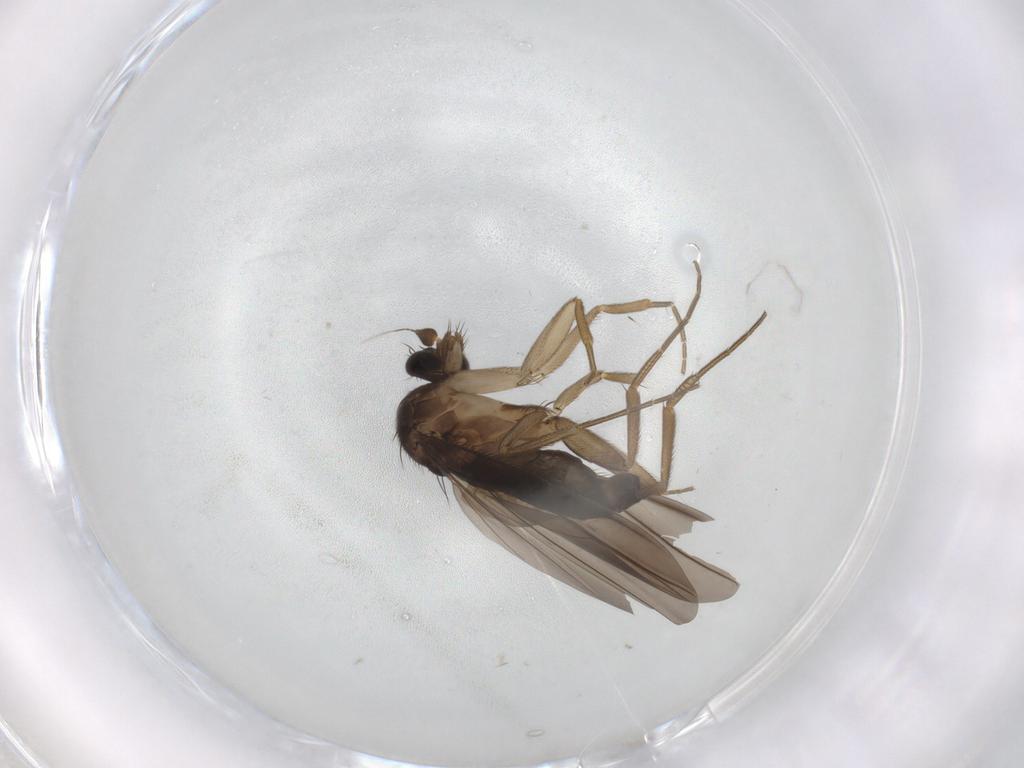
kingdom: Animalia
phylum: Arthropoda
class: Insecta
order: Diptera
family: Phoridae
